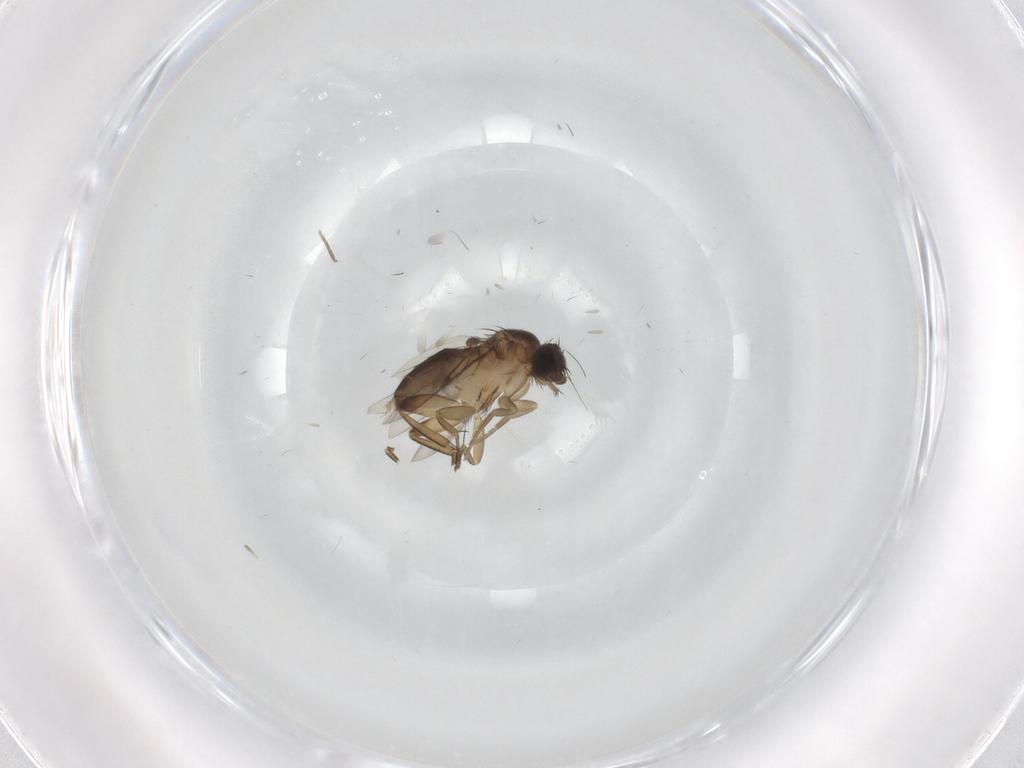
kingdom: Animalia
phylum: Arthropoda
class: Insecta
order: Diptera
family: Phoridae
